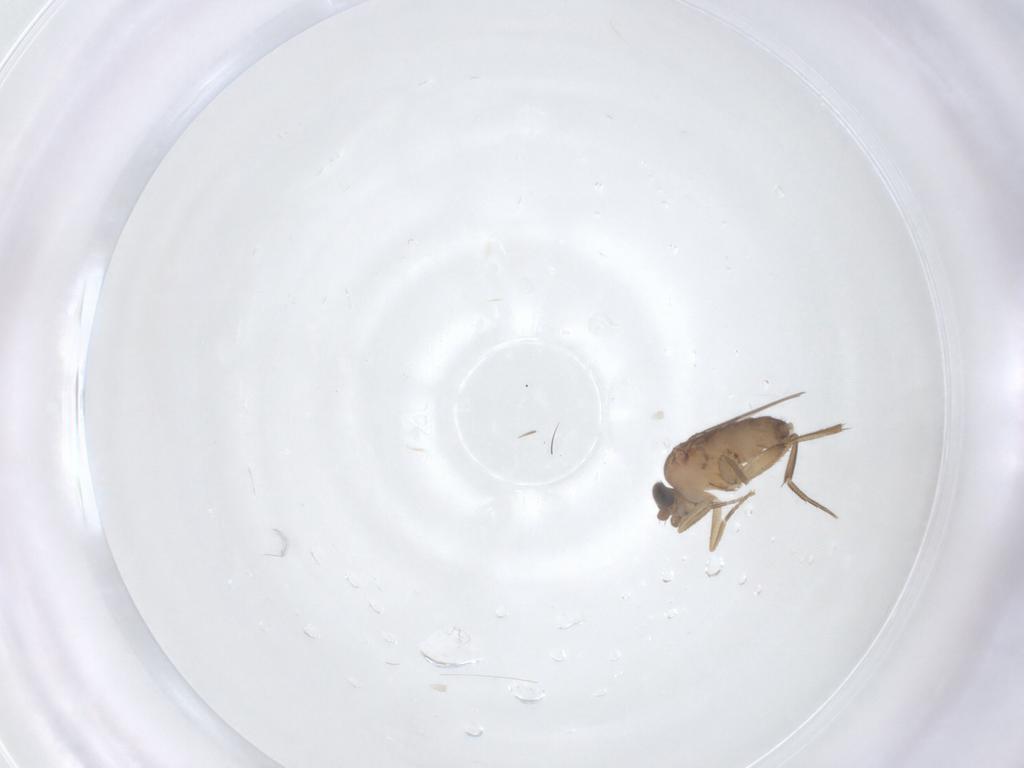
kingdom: Animalia
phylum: Arthropoda
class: Insecta
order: Diptera
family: Phoridae
